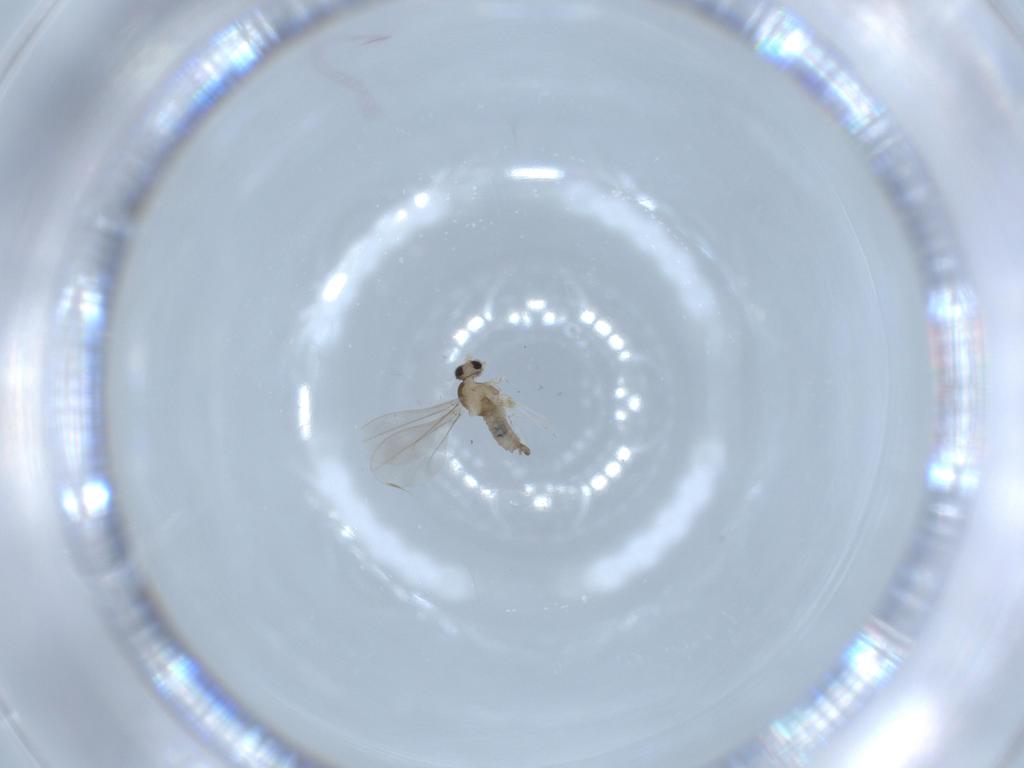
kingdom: Animalia
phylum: Arthropoda
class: Insecta
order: Diptera
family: Cecidomyiidae
